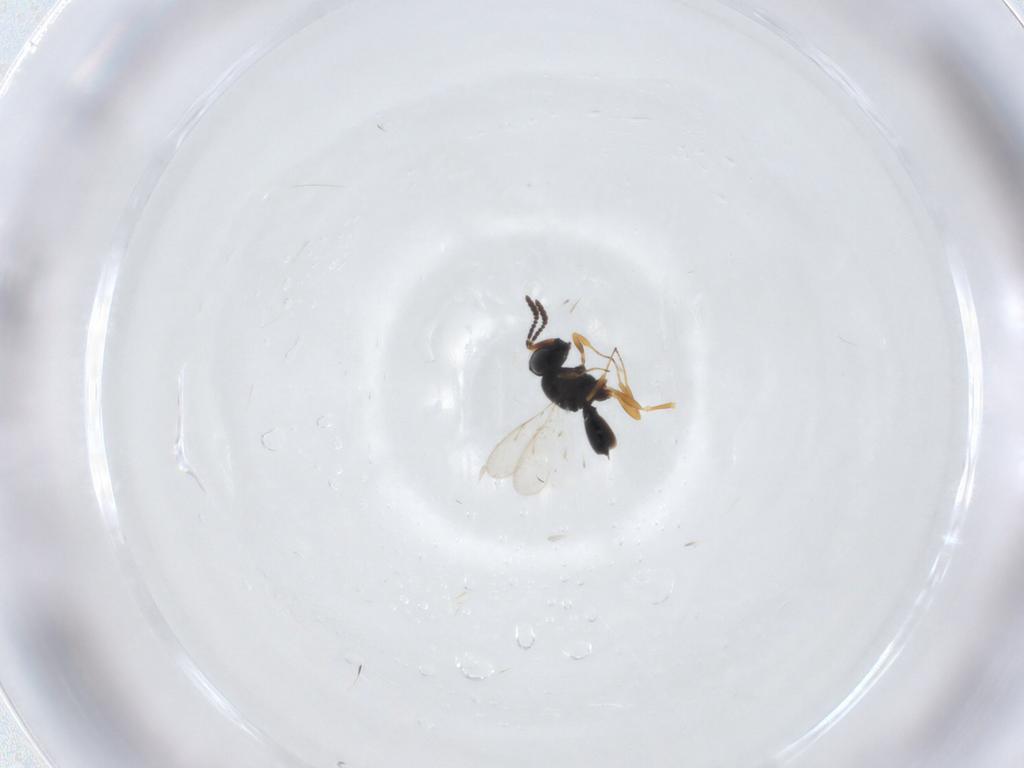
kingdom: Animalia
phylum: Arthropoda
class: Insecta
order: Hymenoptera
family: Scelionidae
